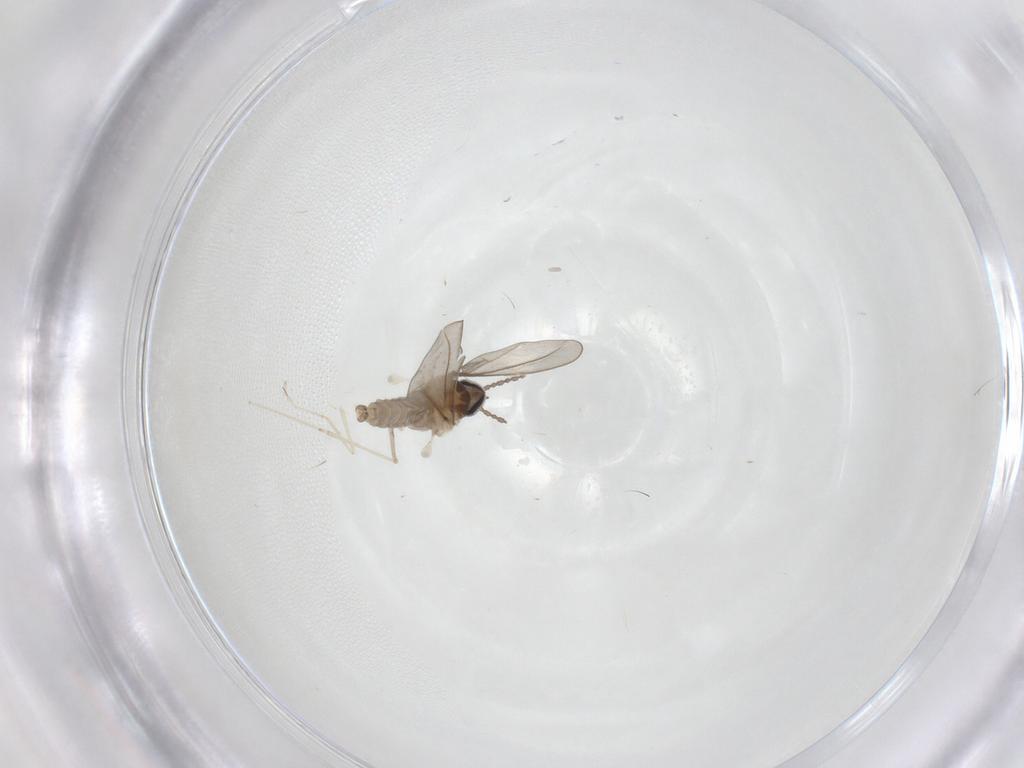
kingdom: Animalia
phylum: Arthropoda
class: Insecta
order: Diptera
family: Cecidomyiidae
